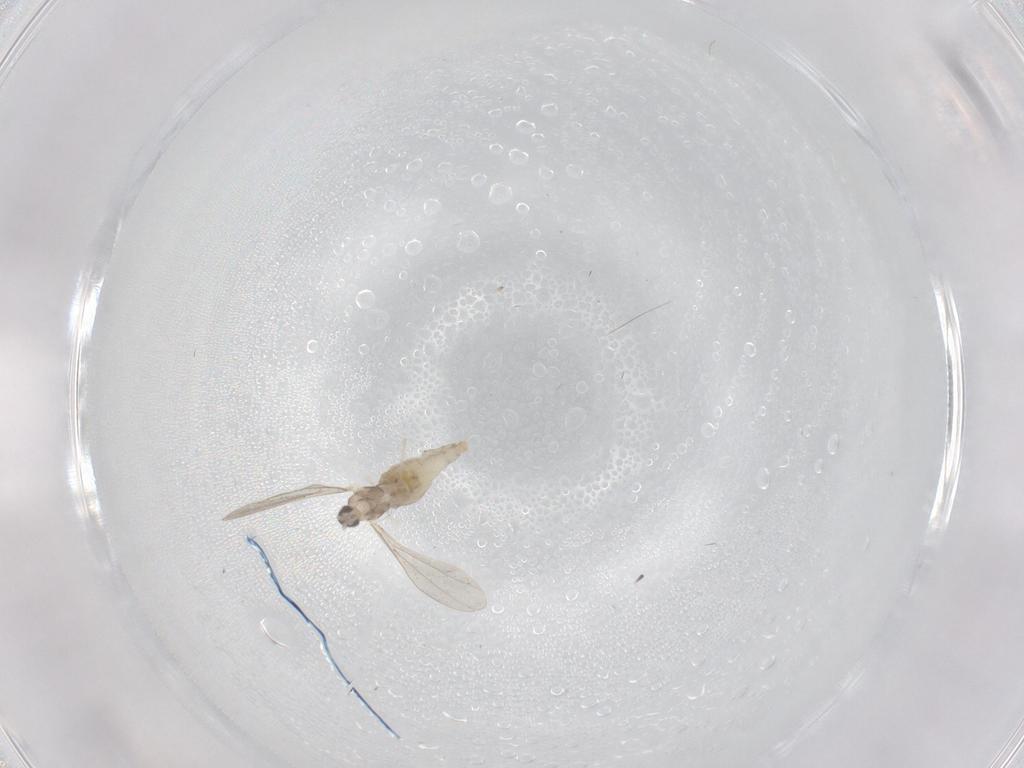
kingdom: Animalia
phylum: Arthropoda
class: Insecta
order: Diptera
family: Cecidomyiidae
